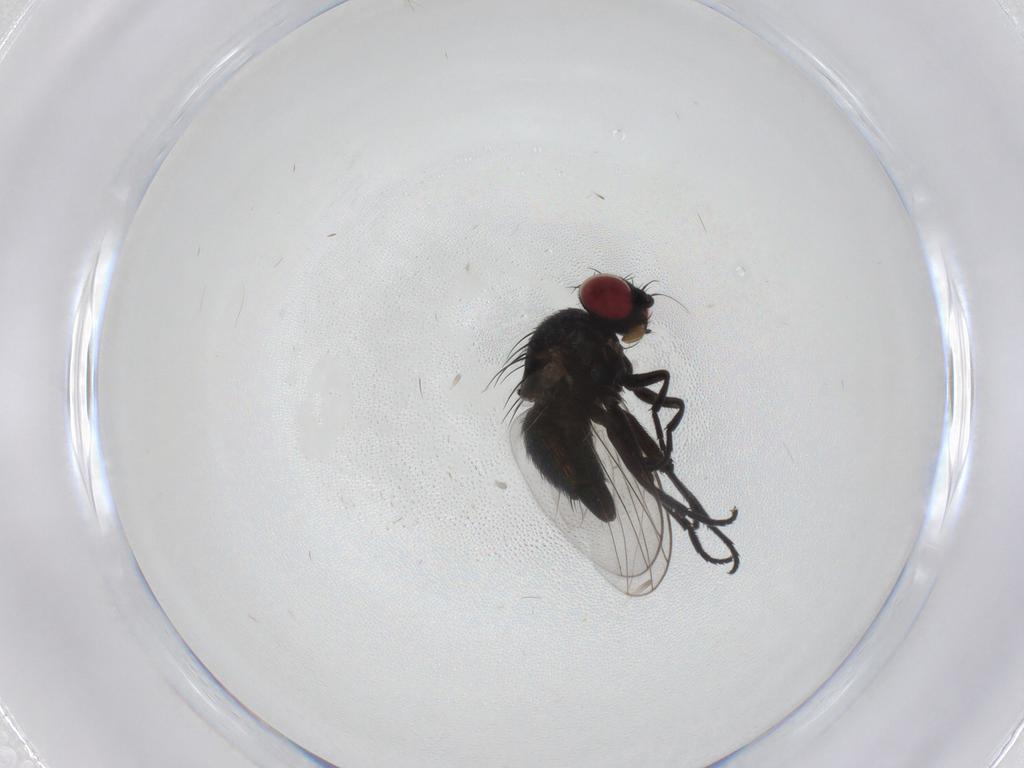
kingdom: Animalia
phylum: Arthropoda
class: Insecta
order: Diptera
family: Agromyzidae
